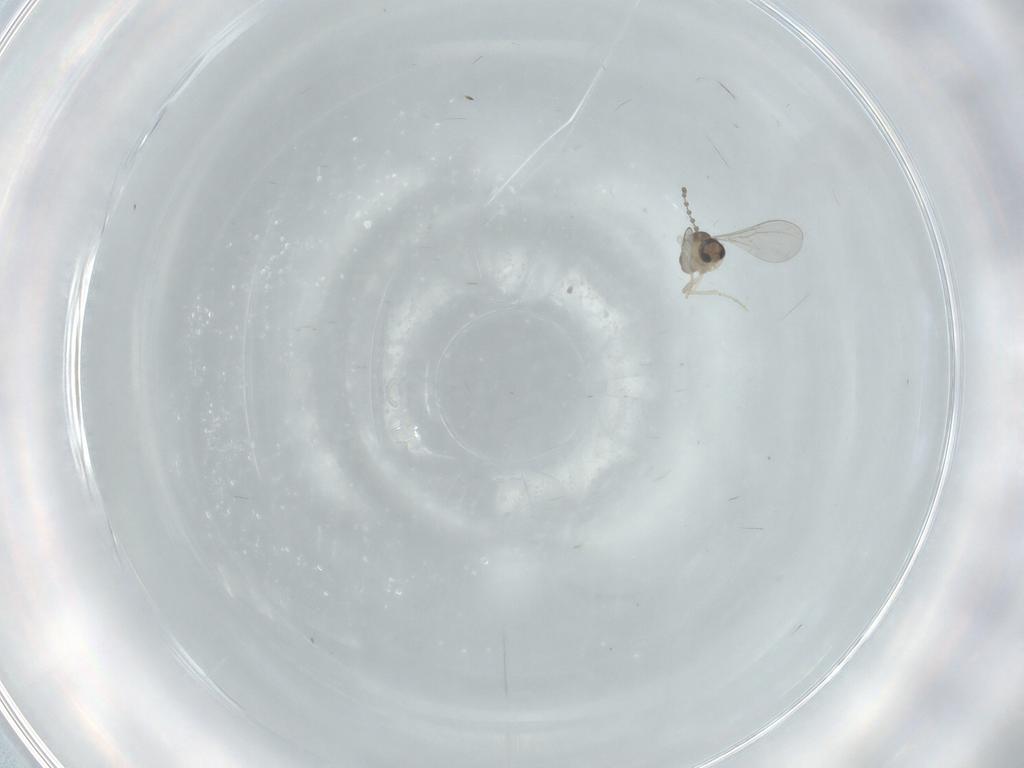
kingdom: Animalia
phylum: Arthropoda
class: Insecta
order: Diptera
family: Cecidomyiidae
